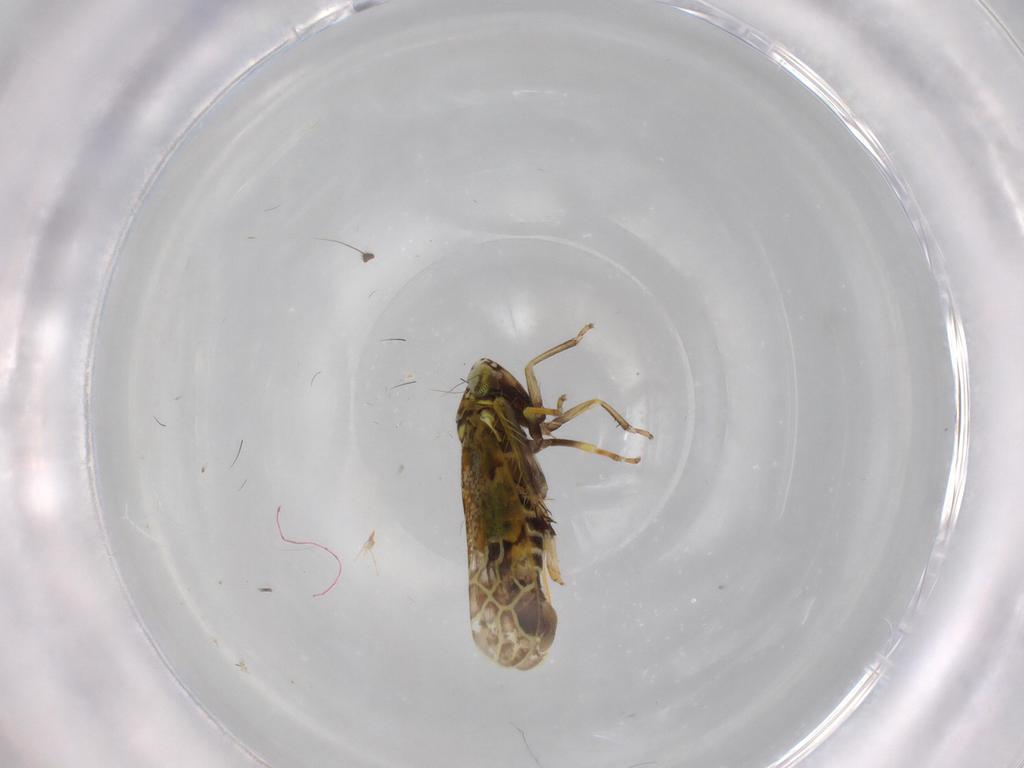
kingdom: Animalia
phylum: Arthropoda
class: Insecta
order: Hemiptera
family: Cicadellidae
